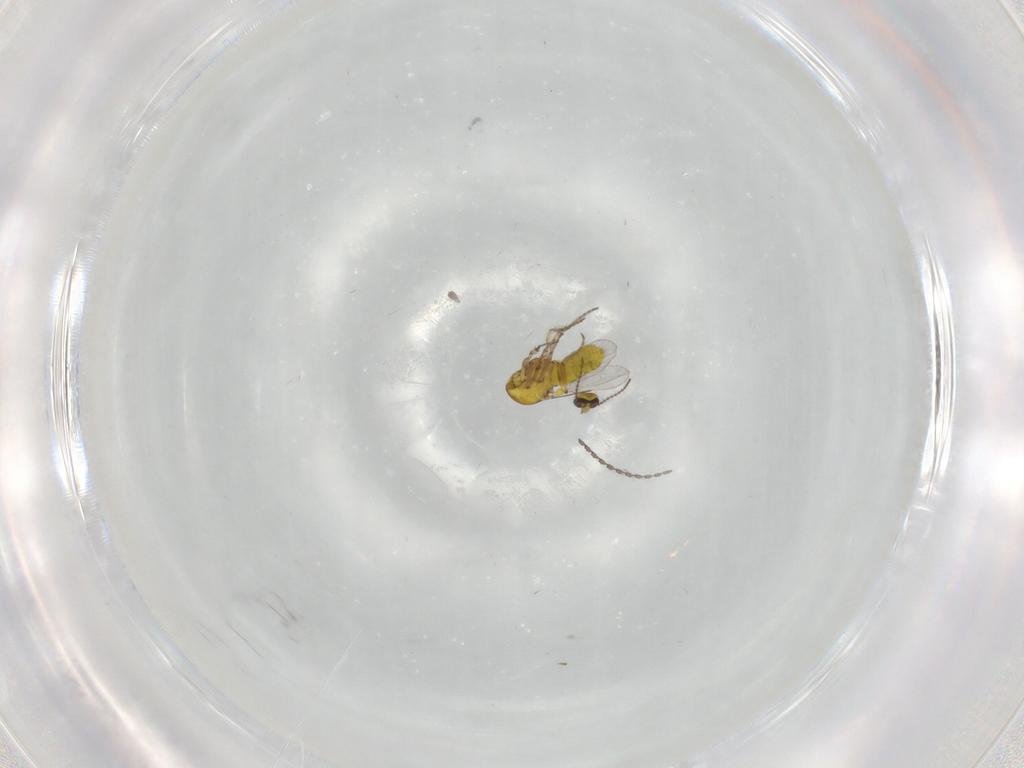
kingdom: Animalia
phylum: Arthropoda
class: Insecta
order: Diptera
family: Ceratopogonidae
